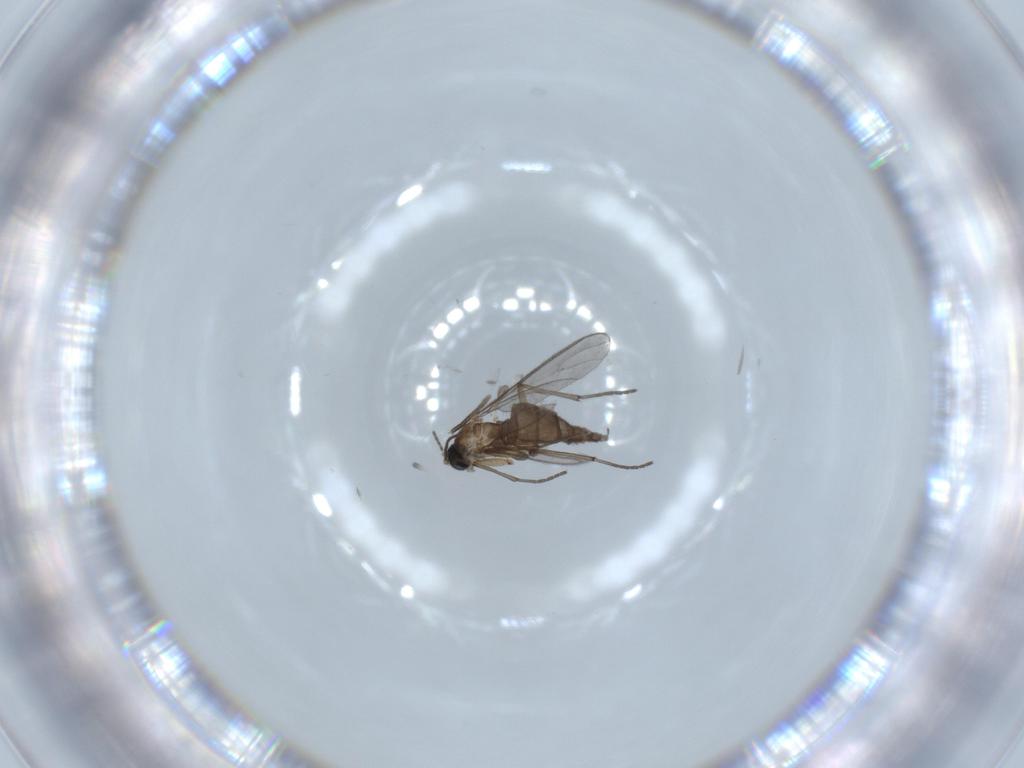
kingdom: Animalia
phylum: Arthropoda
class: Insecta
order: Diptera
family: Sciaridae
